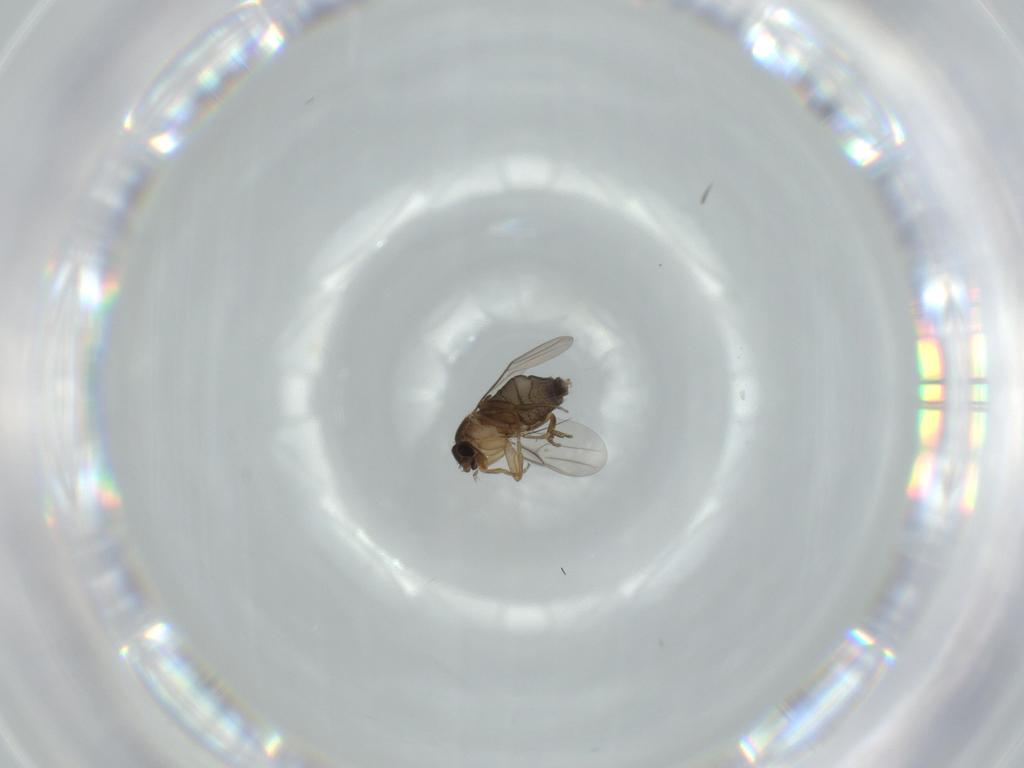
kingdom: Animalia
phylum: Arthropoda
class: Insecta
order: Diptera
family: Phoridae
